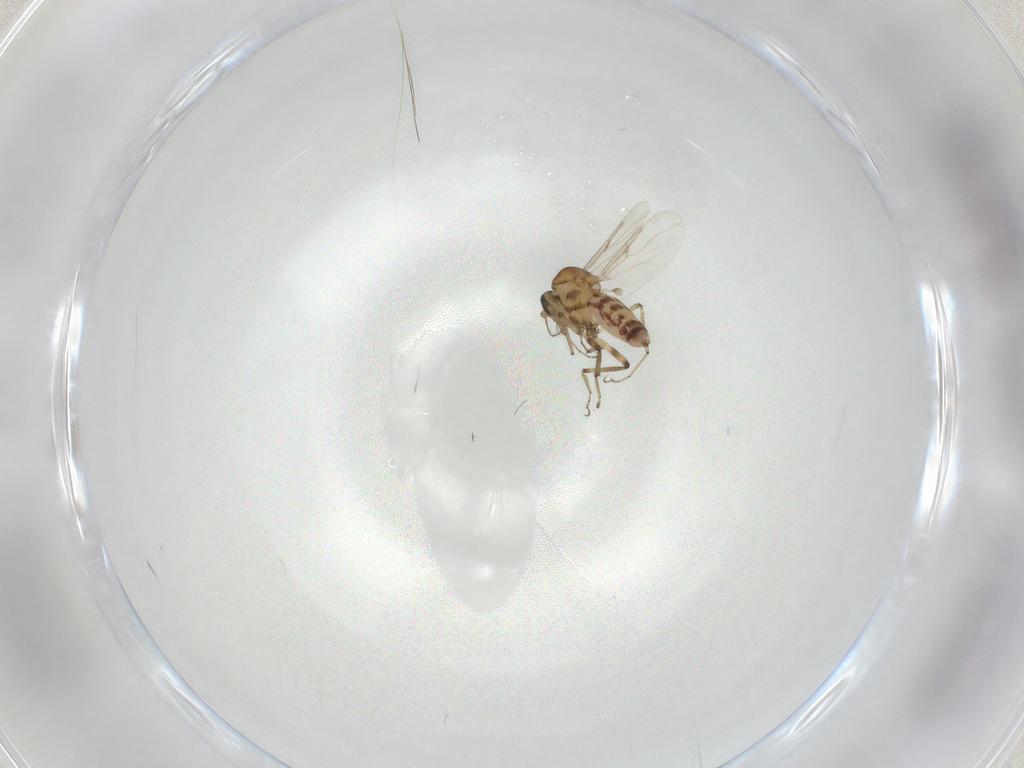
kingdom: Animalia
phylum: Arthropoda
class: Insecta
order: Diptera
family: Ceratopogonidae
